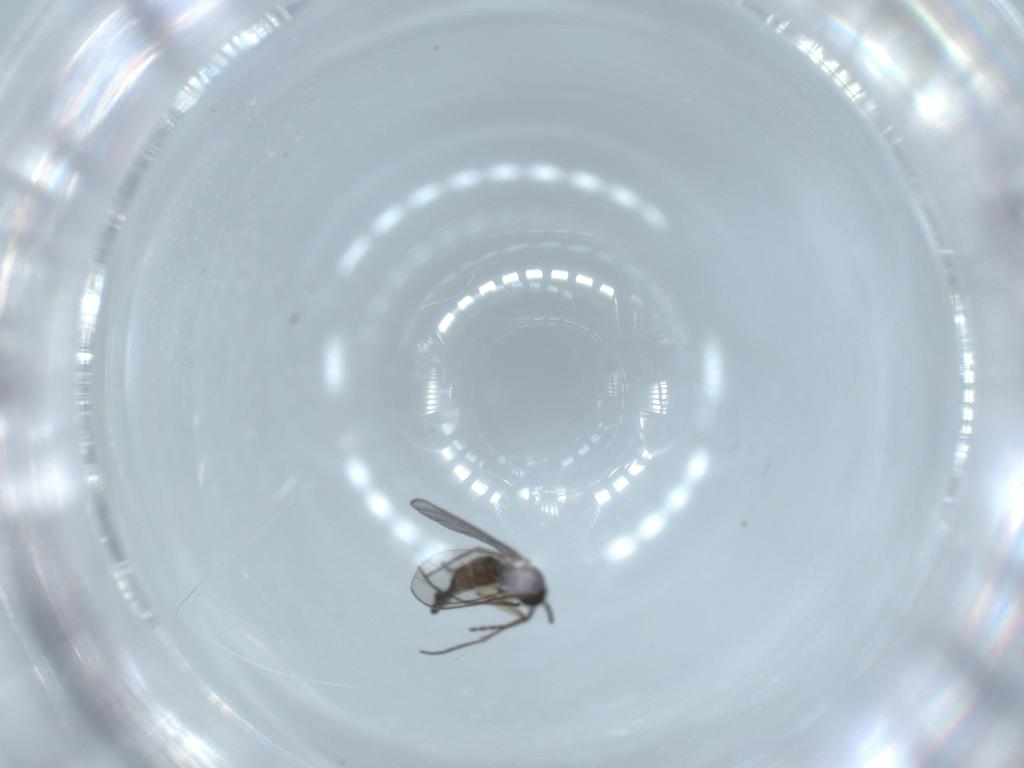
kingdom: Animalia
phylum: Arthropoda
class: Insecta
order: Diptera
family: Sciaridae
